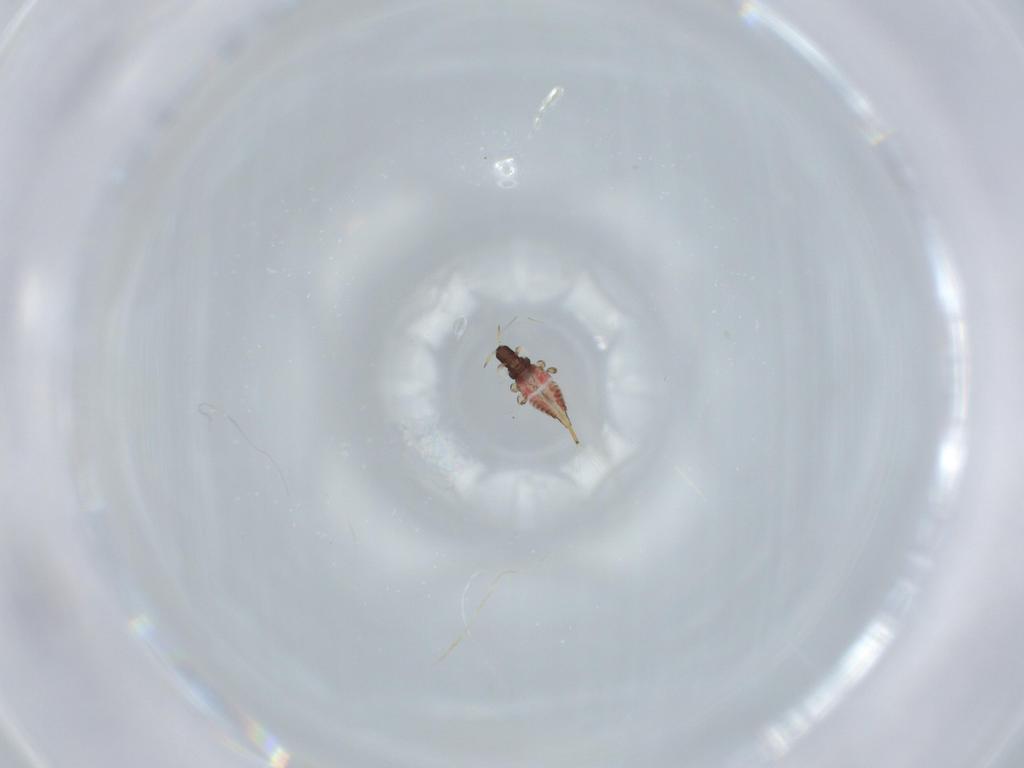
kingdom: Animalia
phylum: Arthropoda
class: Insecta
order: Thysanoptera
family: Phlaeothripidae
